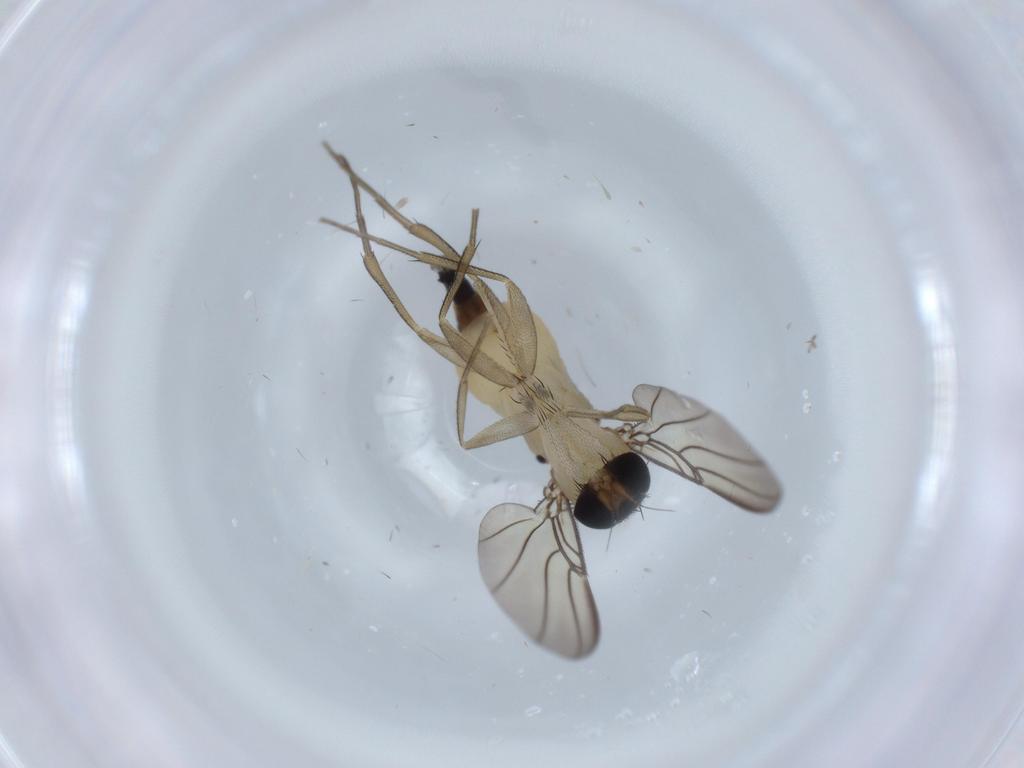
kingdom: Animalia
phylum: Arthropoda
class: Insecta
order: Diptera
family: Phoridae
